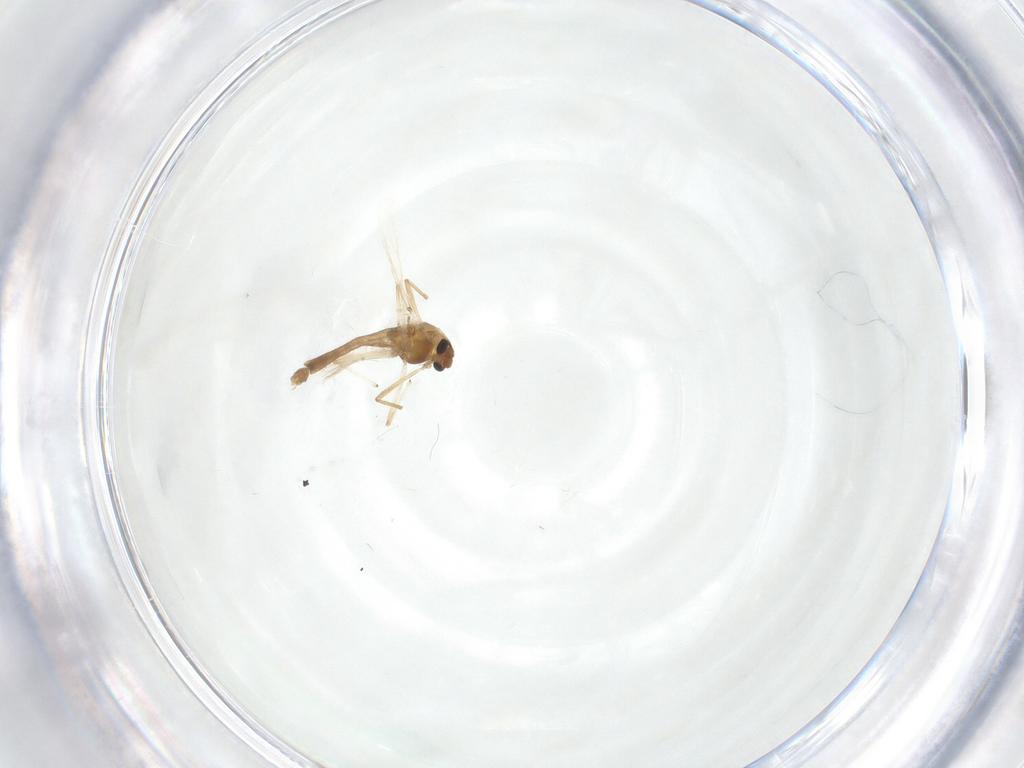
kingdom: Animalia
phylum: Arthropoda
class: Insecta
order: Diptera
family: Chironomidae
